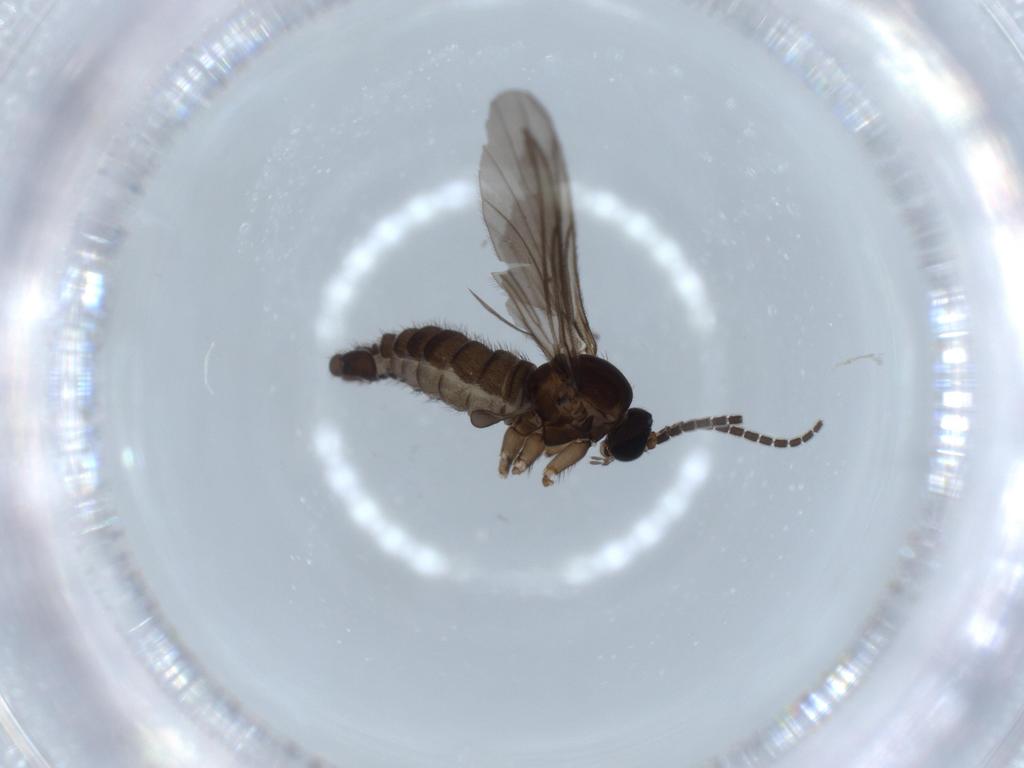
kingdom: Animalia
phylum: Arthropoda
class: Insecta
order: Diptera
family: Sciaridae
